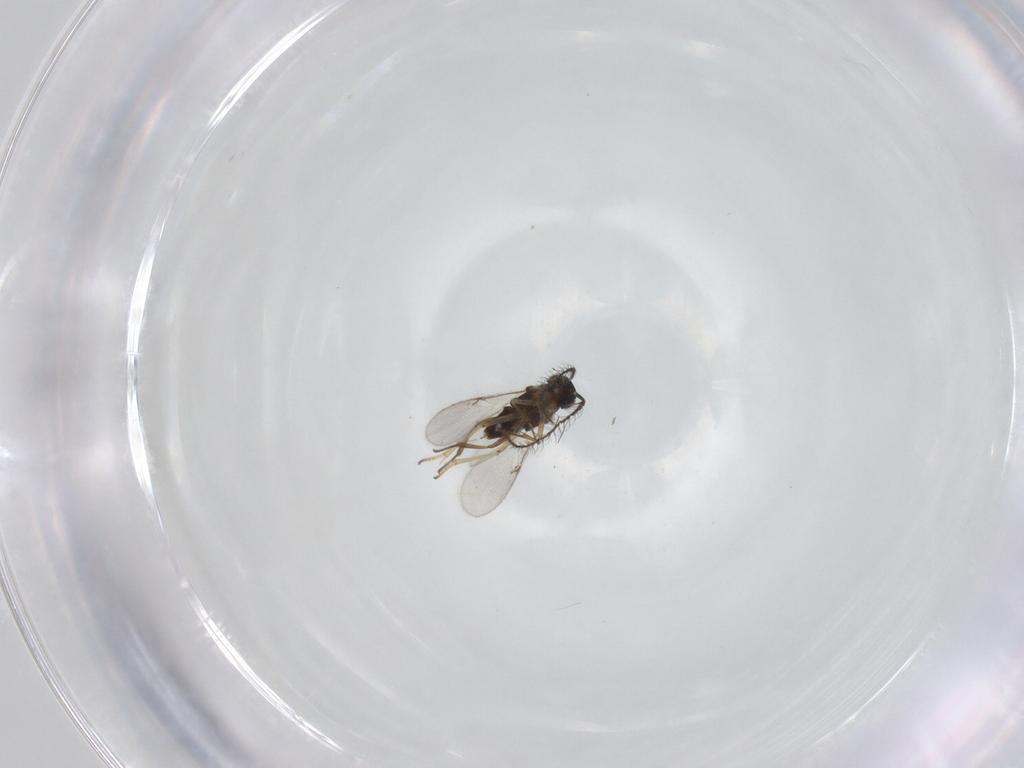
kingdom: Animalia
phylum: Arthropoda
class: Insecta
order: Hymenoptera
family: Encyrtidae
